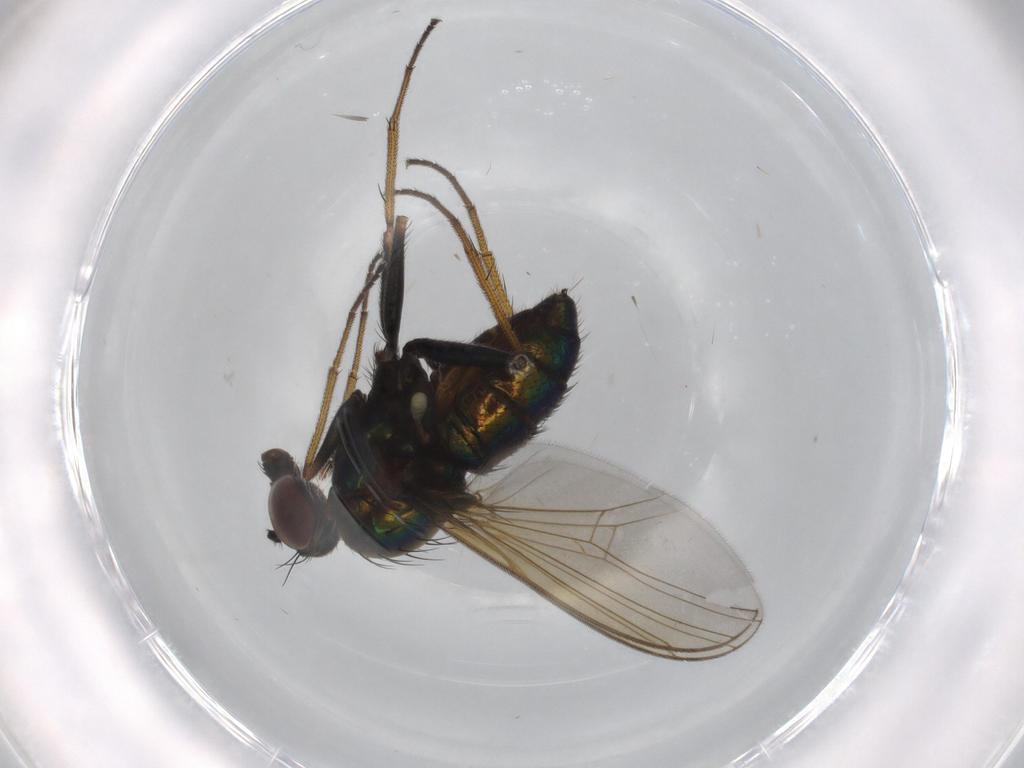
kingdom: Animalia
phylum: Arthropoda
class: Insecta
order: Diptera
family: Dolichopodidae
